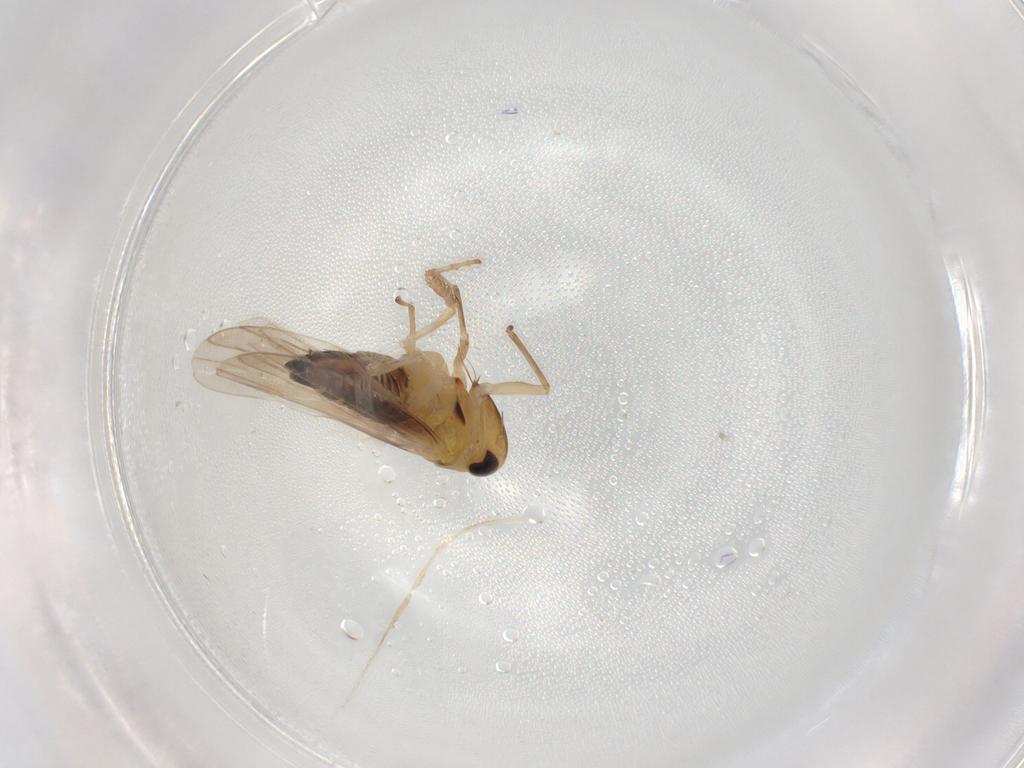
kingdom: Animalia
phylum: Arthropoda
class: Insecta
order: Hemiptera
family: Cicadellidae
